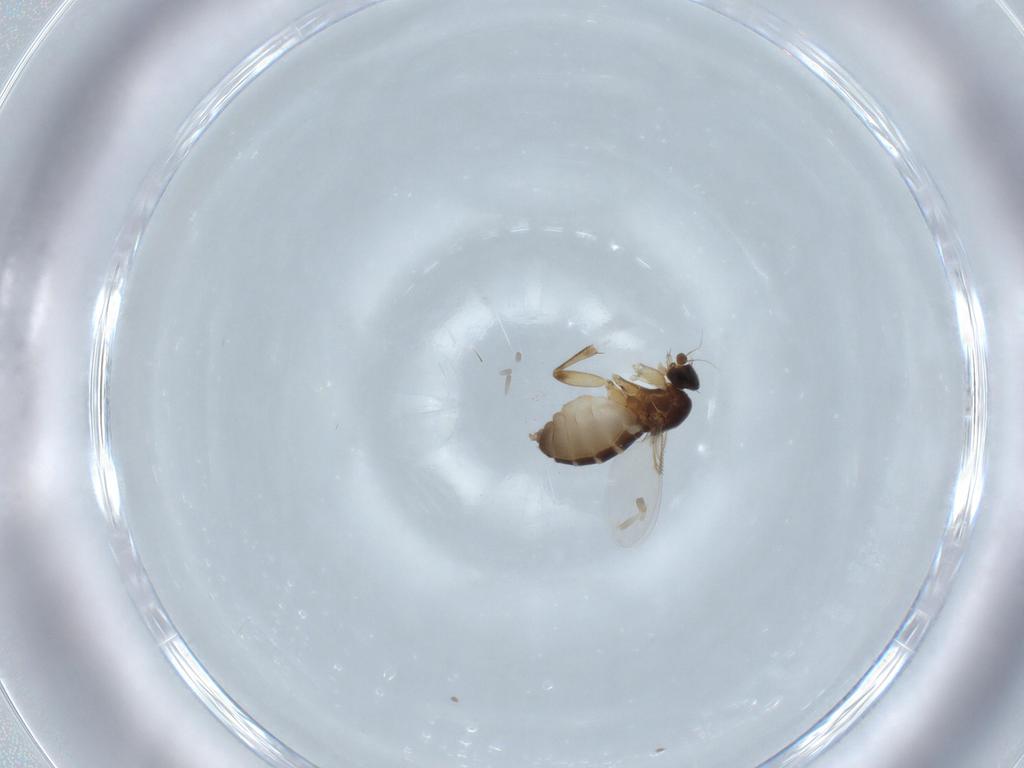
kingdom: Animalia
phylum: Arthropoda
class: Insecta
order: Diptera
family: Phoridae
